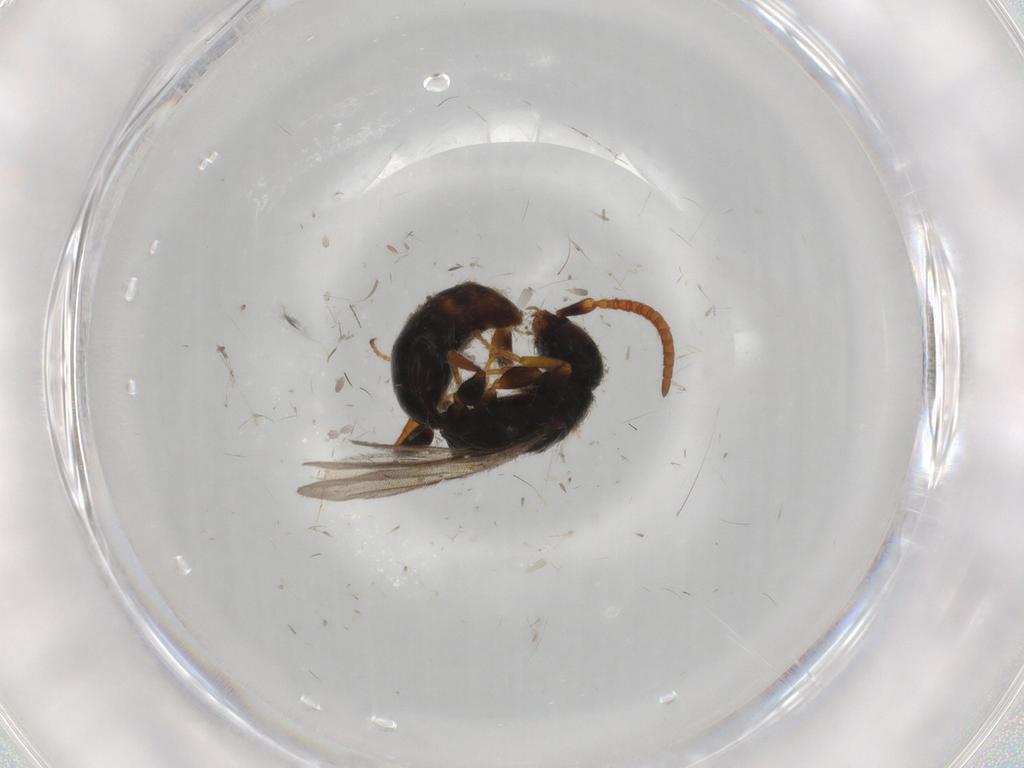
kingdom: Animalia
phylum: Arthropoda
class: Insecta
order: Hymenoptera
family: Bethylidae
